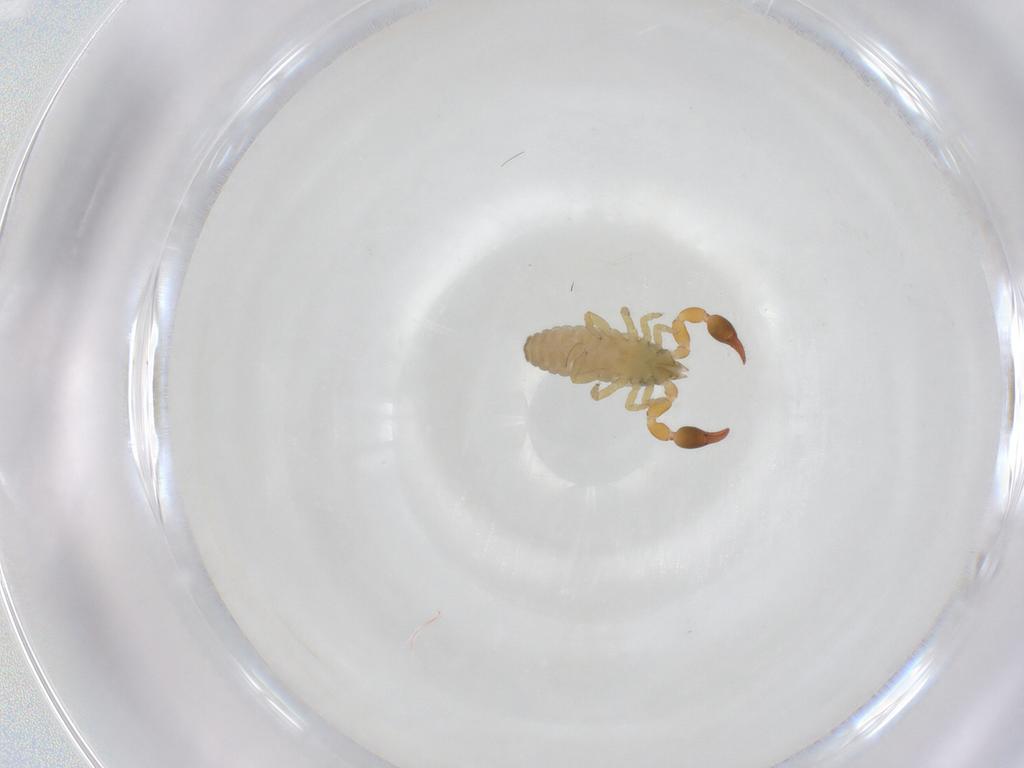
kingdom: Animalia
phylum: Arthropoda
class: Arachnida
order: Pseudoscorpiones
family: Chernetidae
